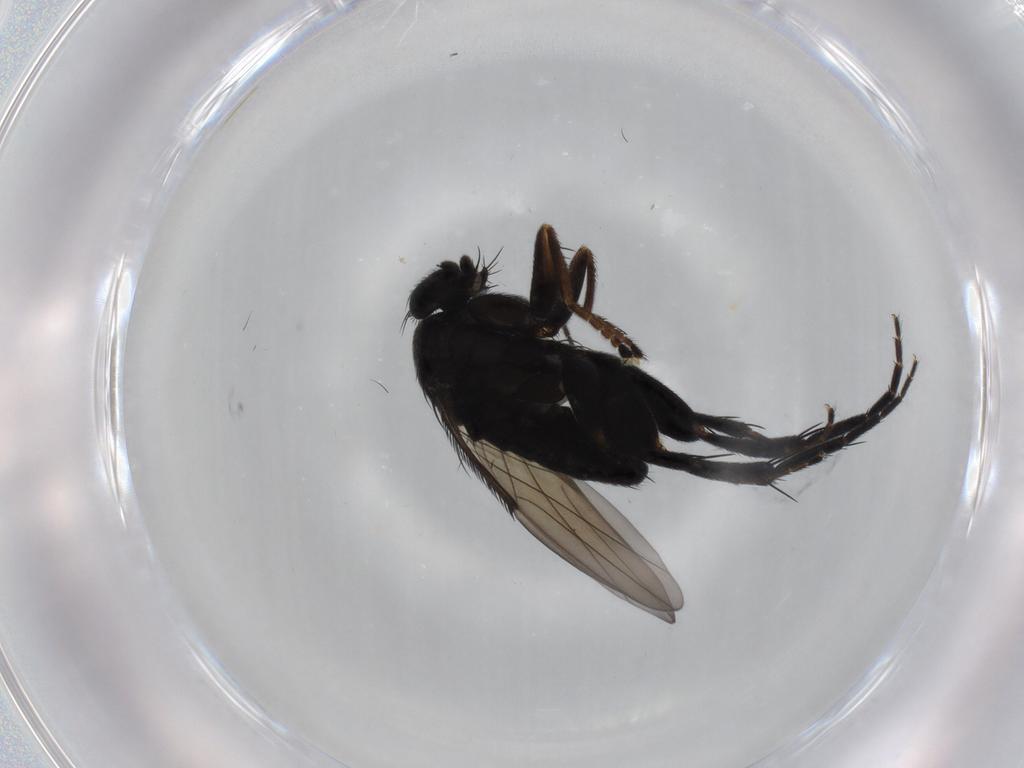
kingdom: Animalia
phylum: Arthropoda
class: Insecta
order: Diptera
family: Phoridae
